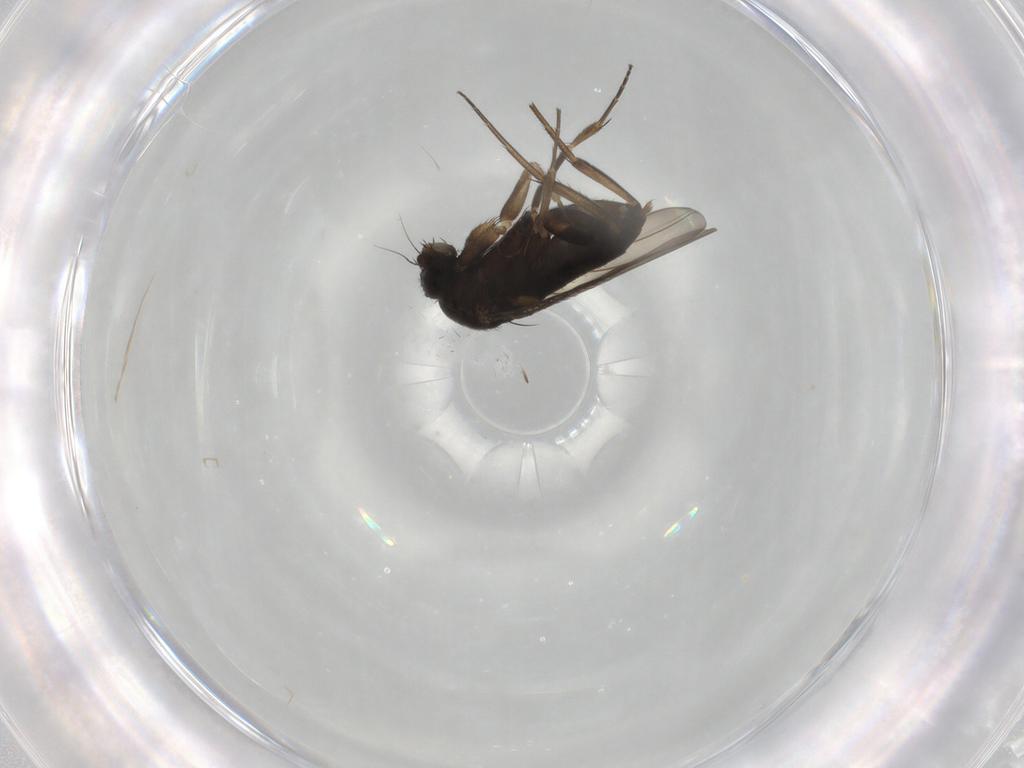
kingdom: Animalia
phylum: Arthropoda
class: Insecta
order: Diptera
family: Phoridae
